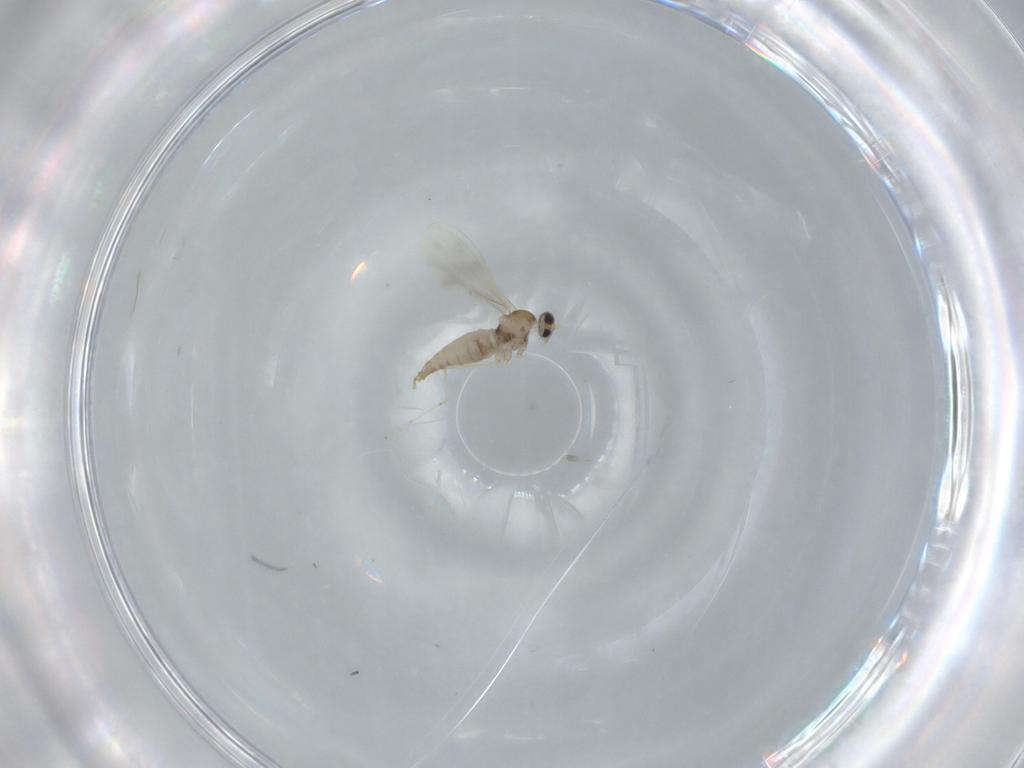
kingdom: Animalia
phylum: Arthropoda
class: Insecta
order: Diptera
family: Cecidomyiidae
